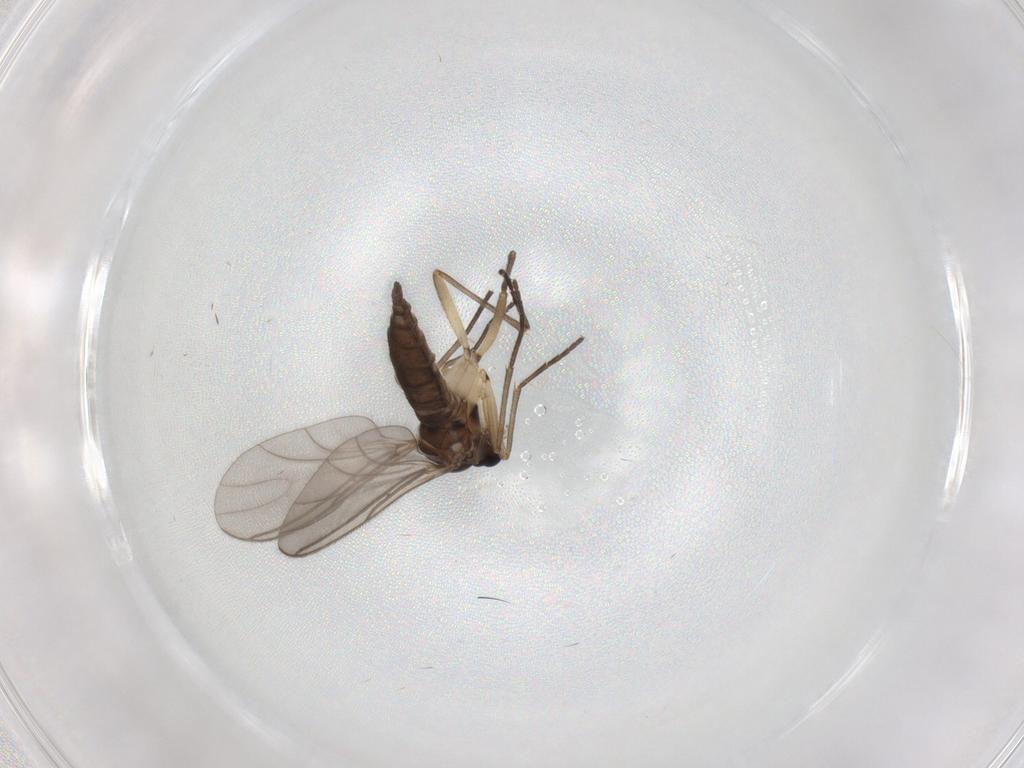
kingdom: Animalia
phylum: Arthropoda
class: Insecta
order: Diptera
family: Sciaridae
